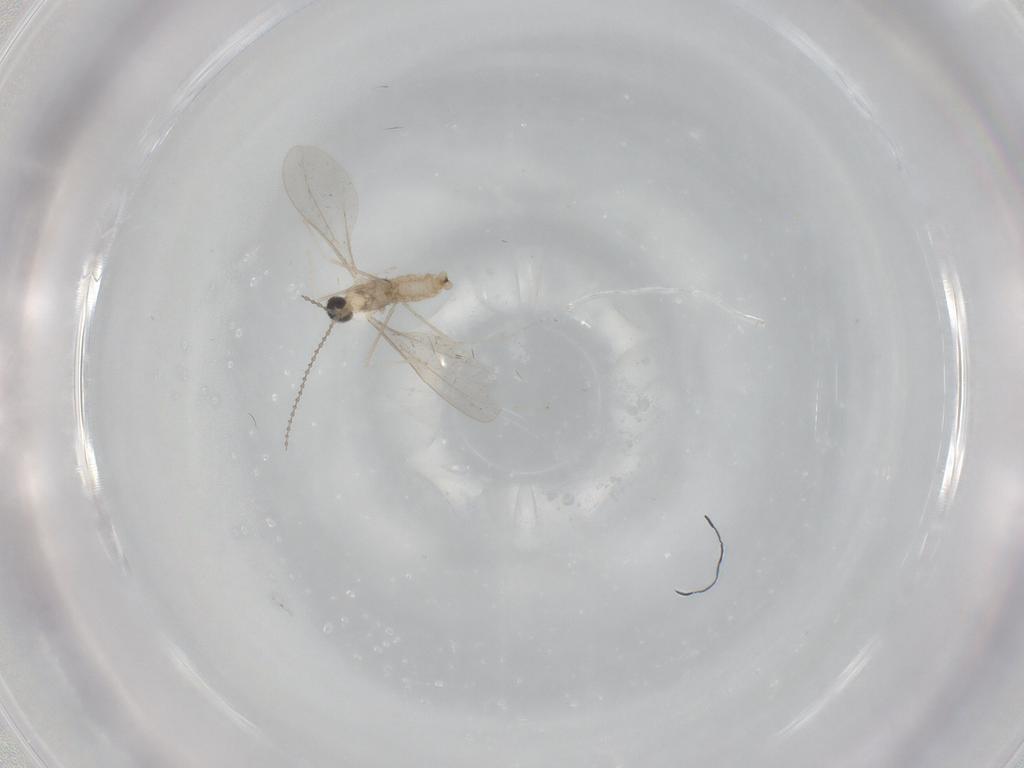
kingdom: Animalia
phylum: Arthropoda
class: Insecta
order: Diptera
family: Cecidomyiidae
